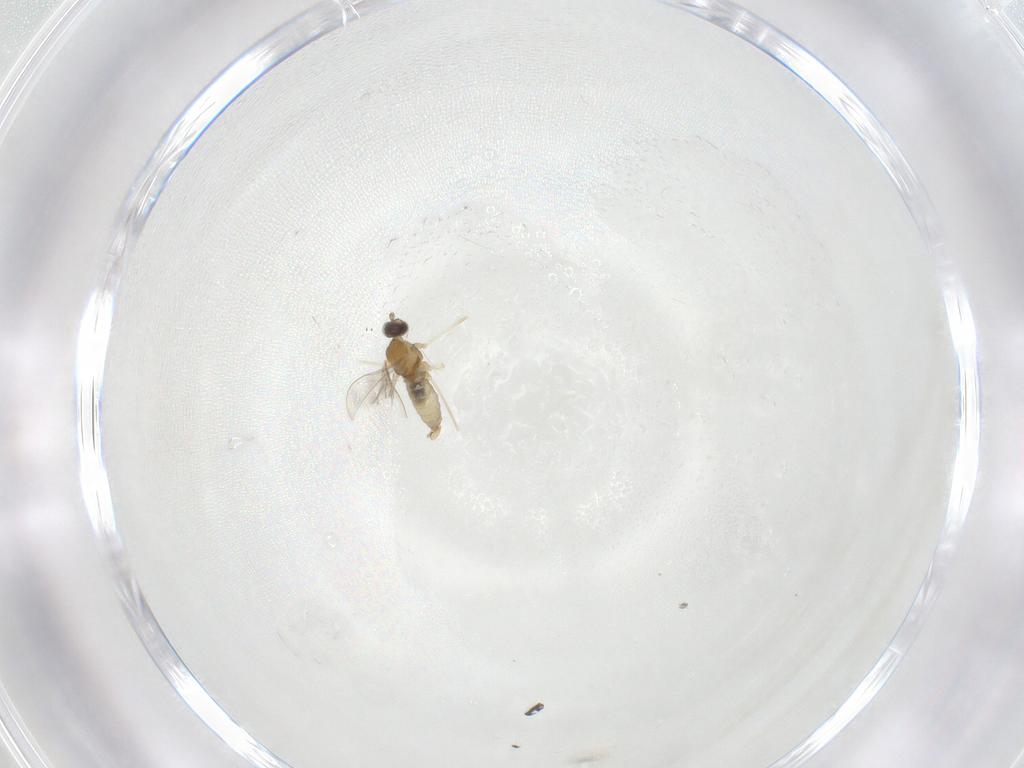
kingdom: Animalia
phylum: Arthropoda
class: Insecta
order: Diptera
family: Cecidomyiidae
